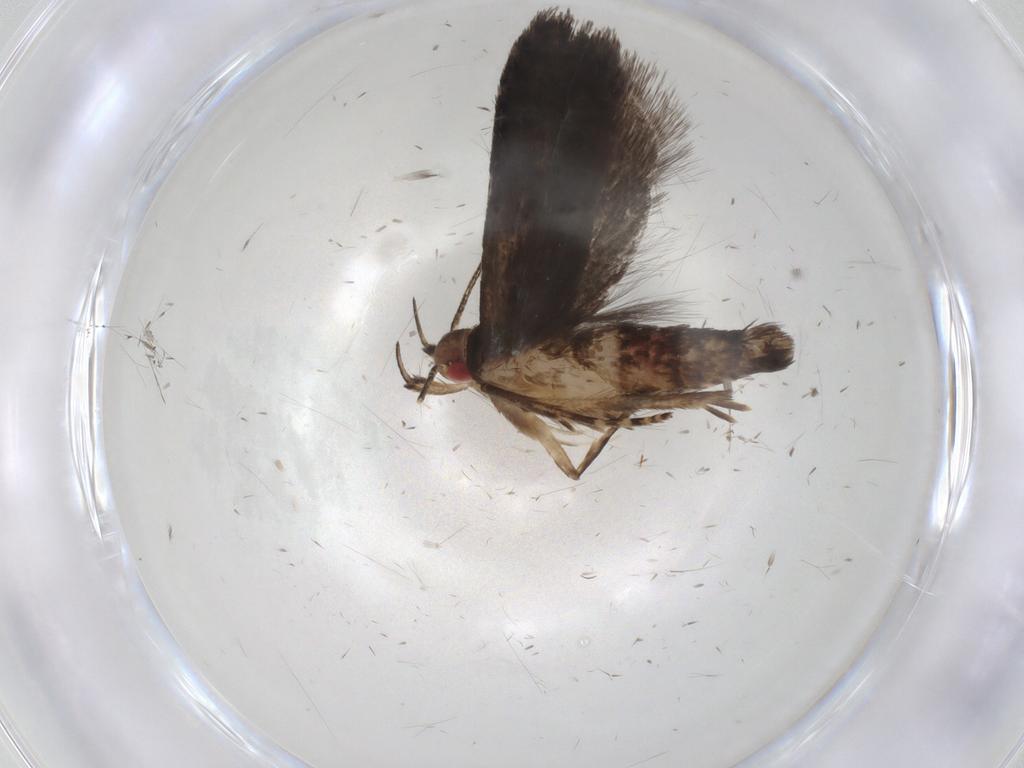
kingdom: Animalia
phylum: Arthropoda
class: Insecta
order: Lepidoptera
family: Gelechiidae
